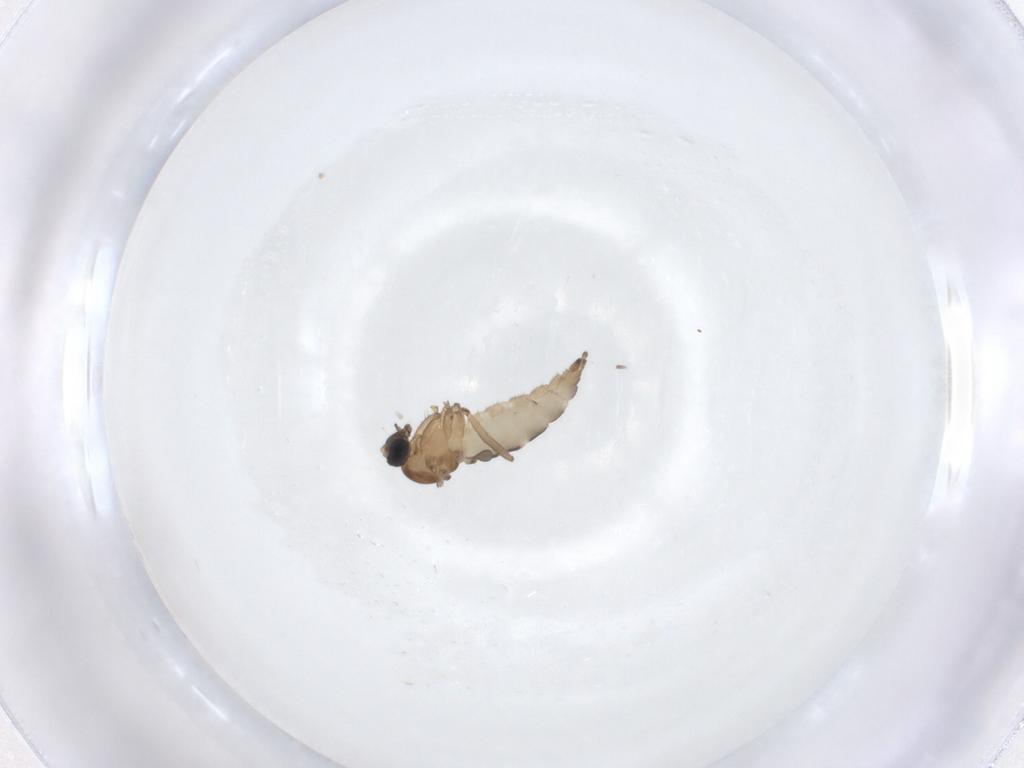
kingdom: Animalia
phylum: Arthropoda
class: Insecta
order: Diptera
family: Sciaridae
